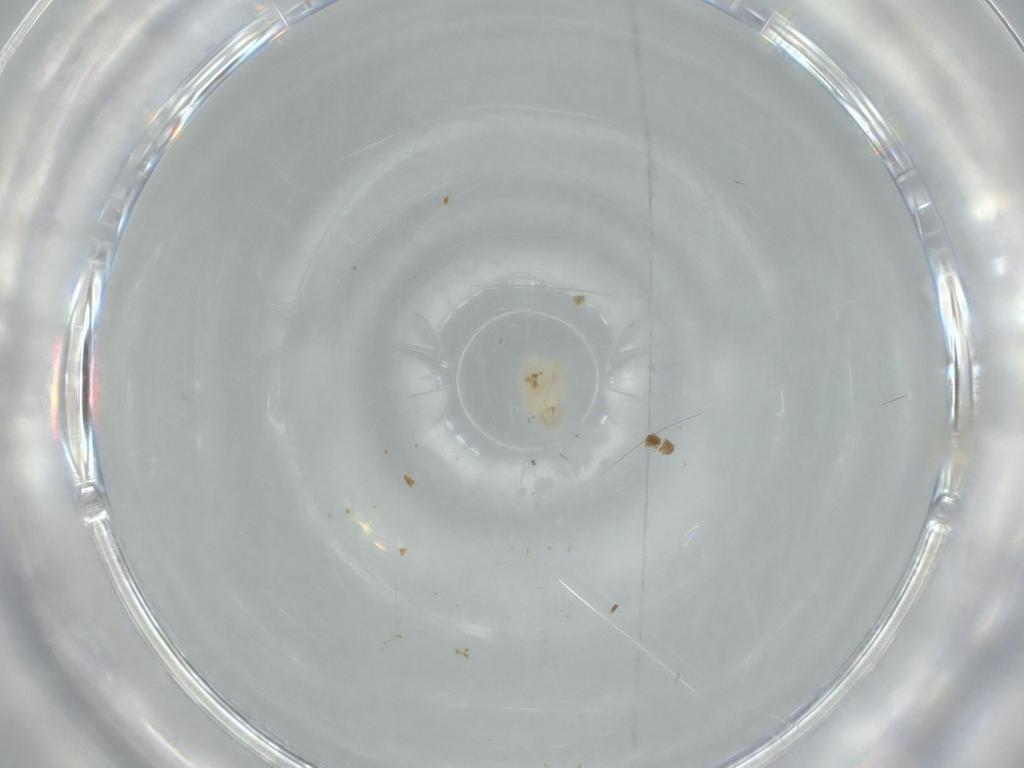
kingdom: Animalia
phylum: Arthropoda
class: Insecta
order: Diptera
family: Cecidomyiidae
